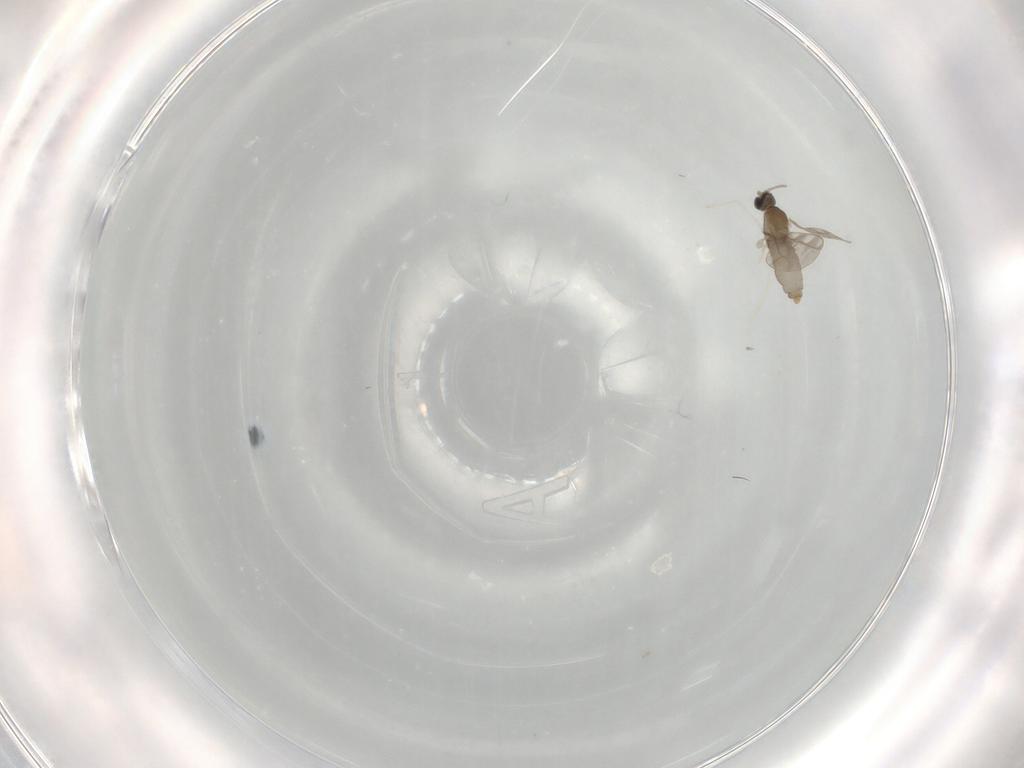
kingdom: Animalia
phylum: Arthropoda
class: Insecta
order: Diptera
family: Cecidomyiidae
